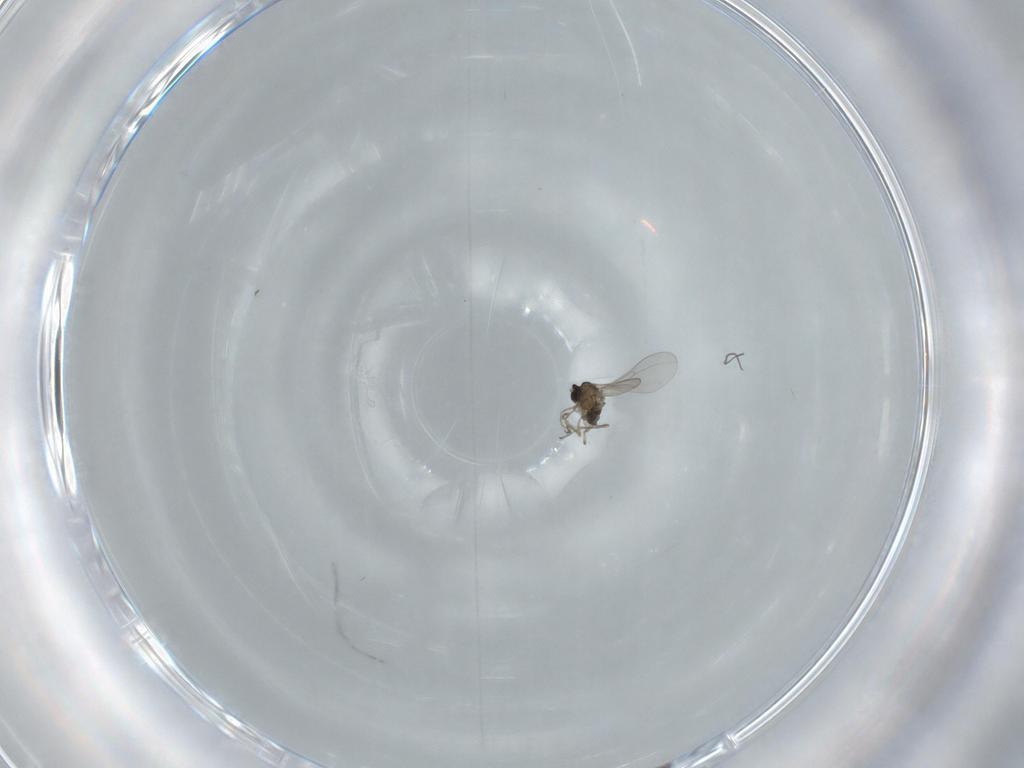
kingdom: Animalia
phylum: Arthropoda
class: Insecta
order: Diptera
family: Cecidomyiidae
